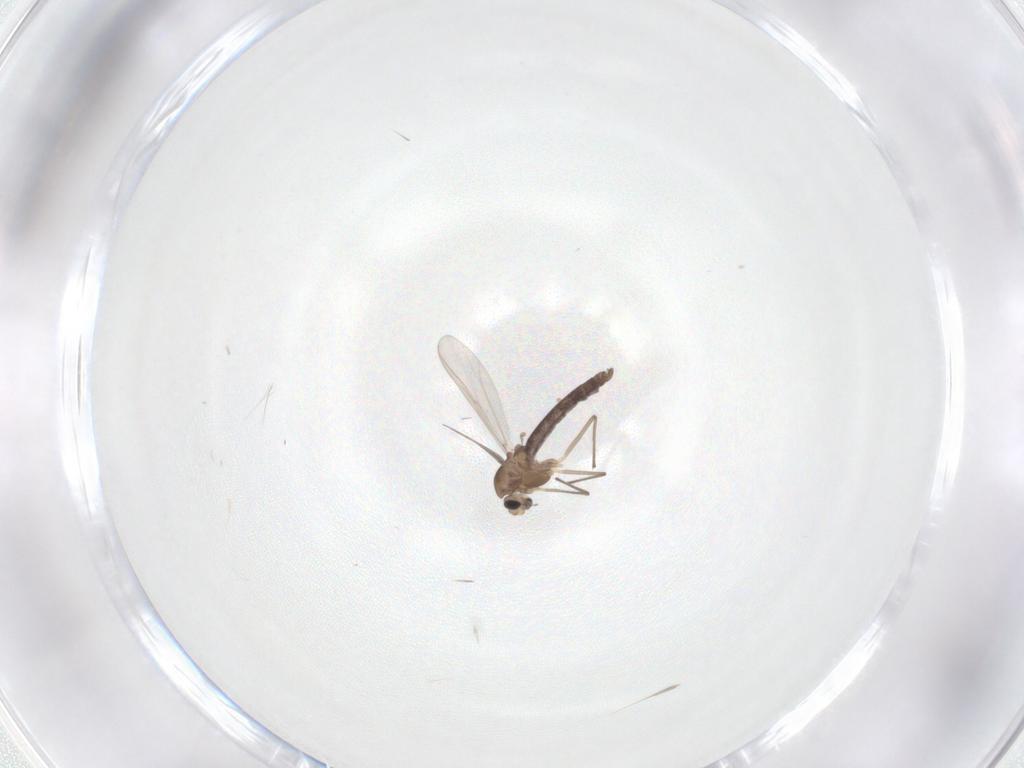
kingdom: Animalia
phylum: Arthropoda
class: Insecta
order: Diptera
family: Chironomidae
